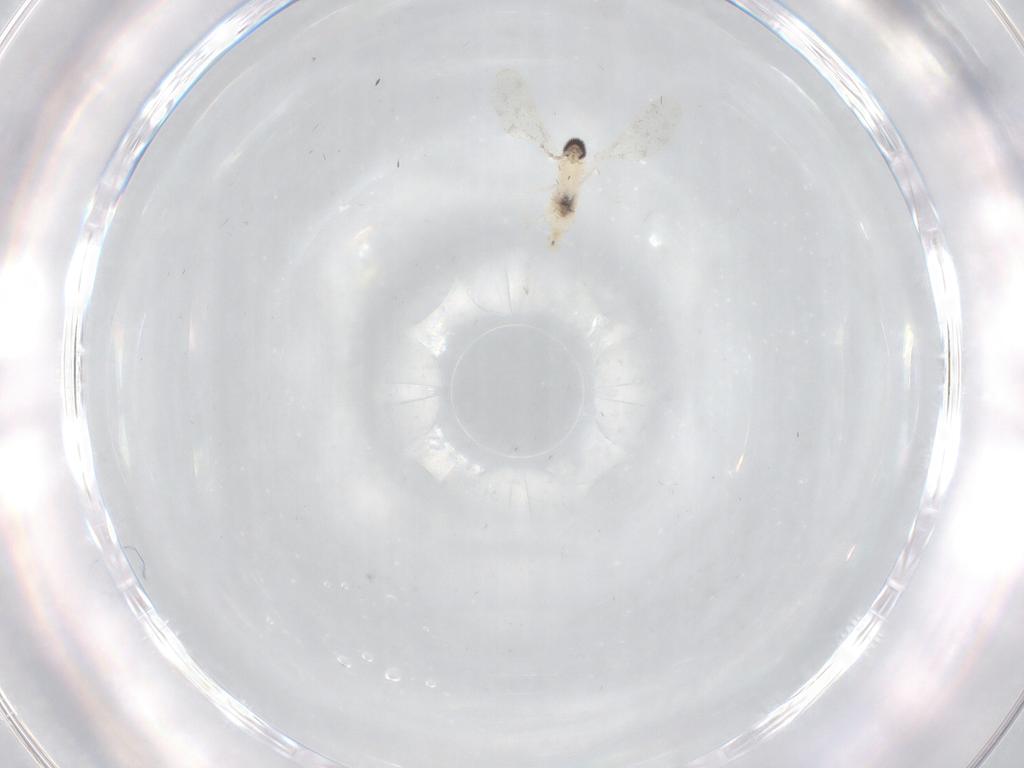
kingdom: Animalia
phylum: Arthropoda
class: Insecta
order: Diptera
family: Cecidomyiidae
